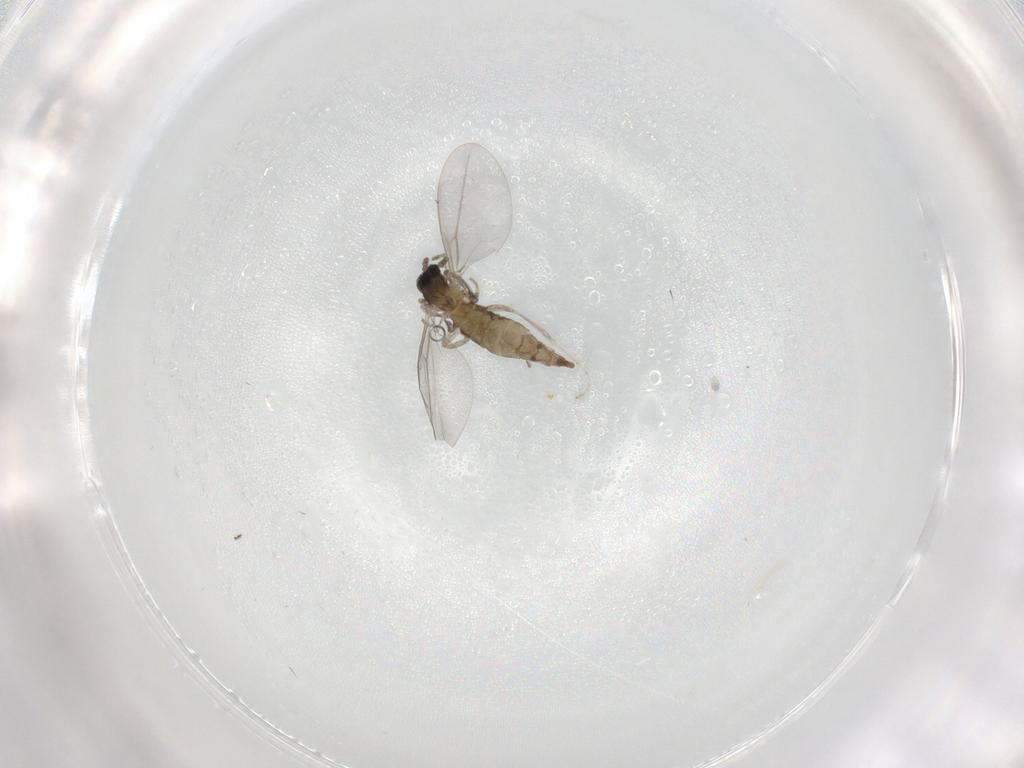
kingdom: Animalia
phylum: Arthropoda
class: Insecta
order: Diptera
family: Cecidomyiidae
